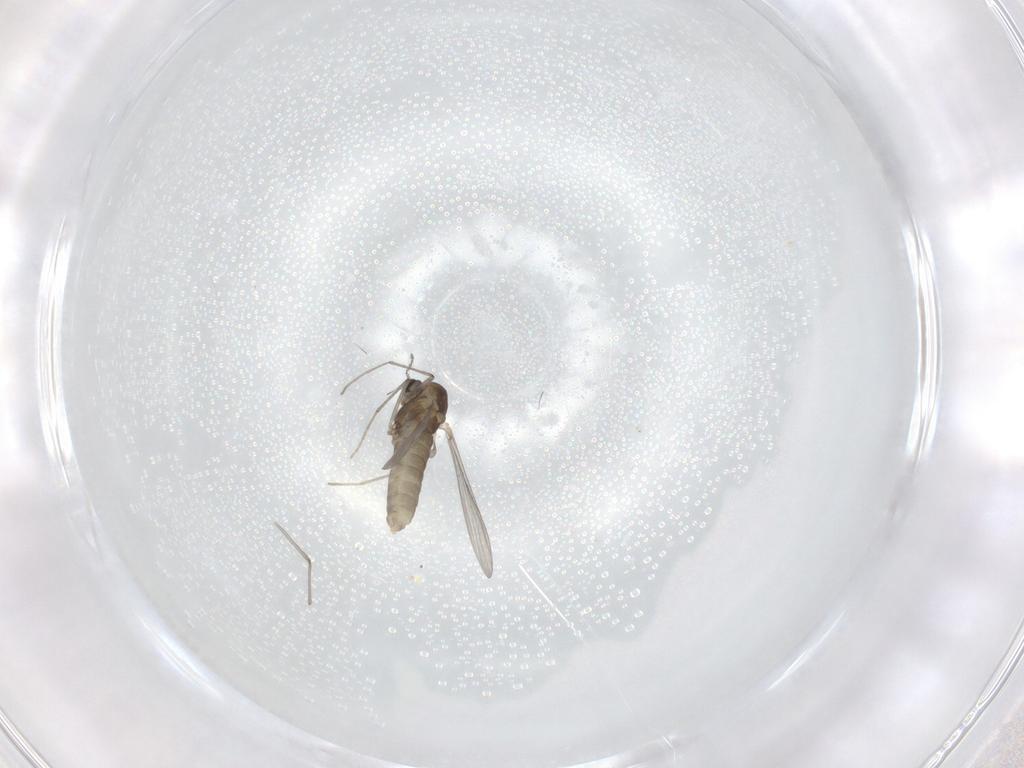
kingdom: Animalia
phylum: Arthropoda
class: Insecta
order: Diptera
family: Chironomidae
